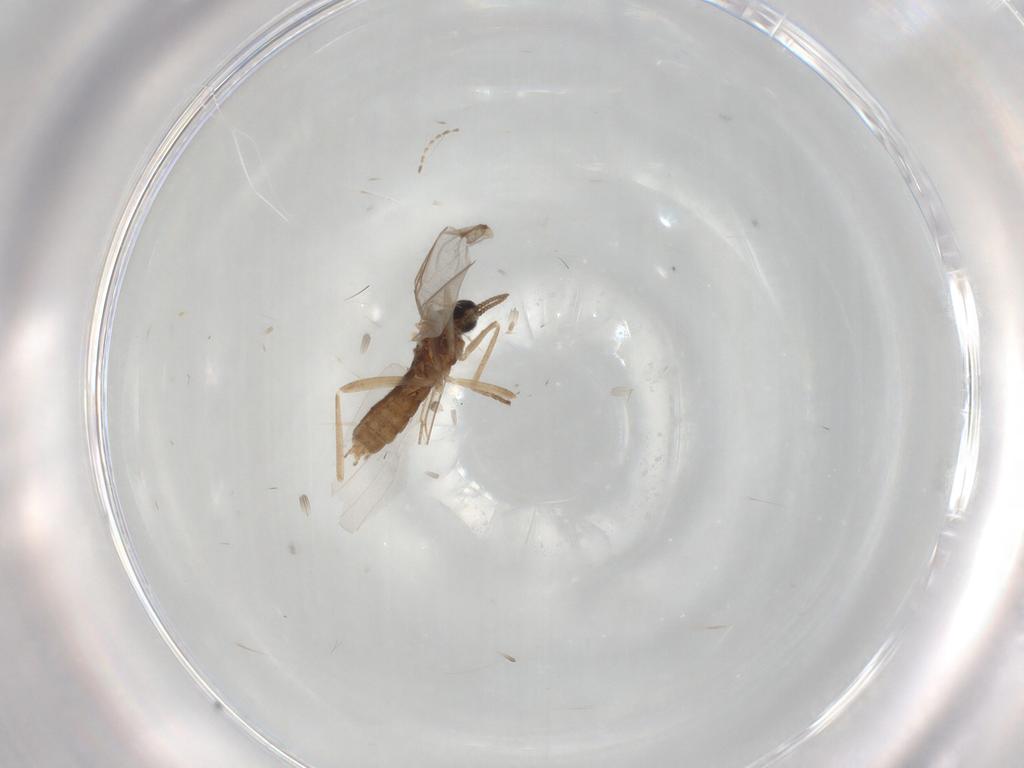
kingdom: Animalia
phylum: Arthropoda
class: Insecta
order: Diptera
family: Cecidomyiidae
